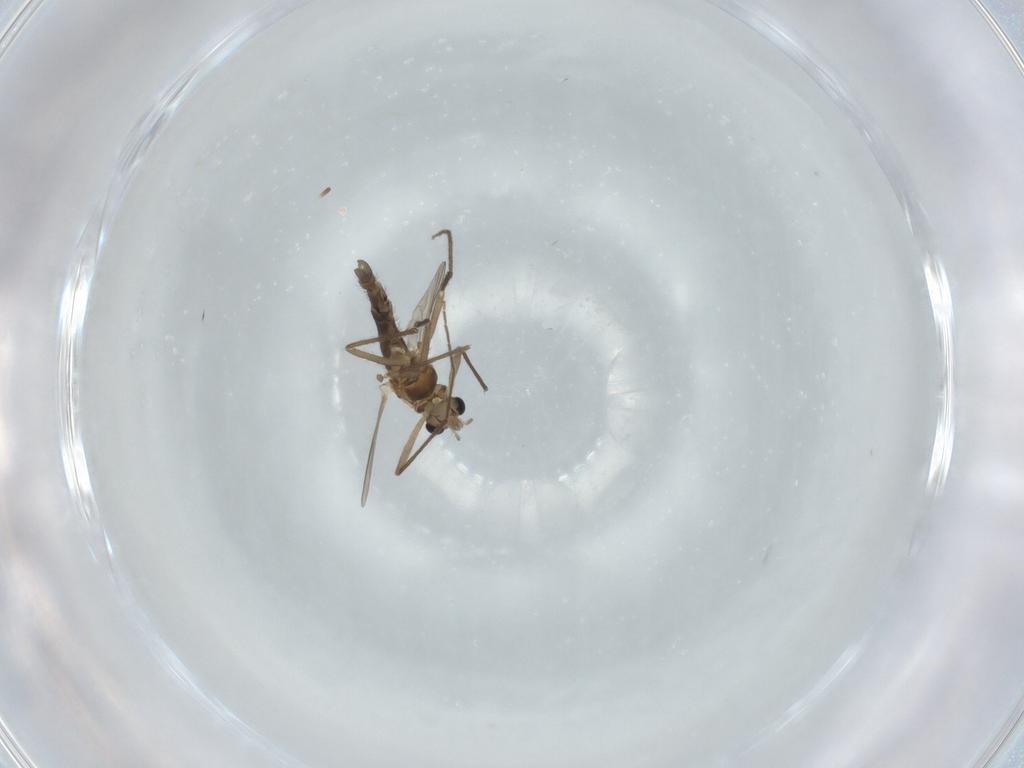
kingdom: Animalia
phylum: Arthropoda
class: Insecta
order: Diptera
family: Chironomidae
